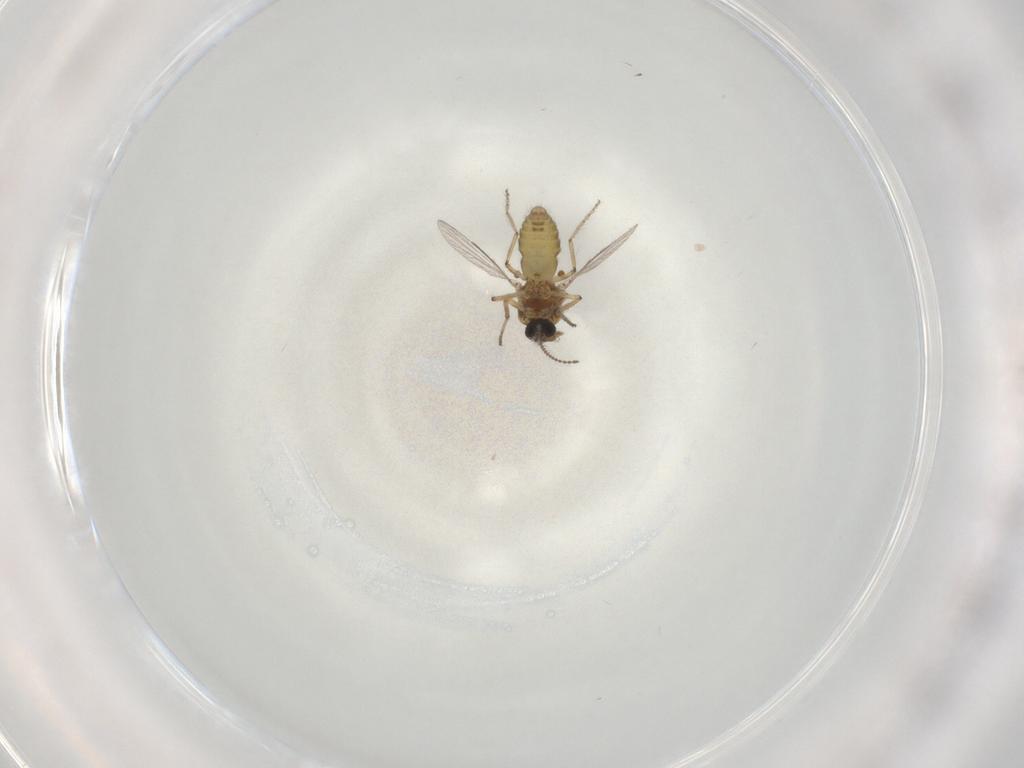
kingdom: Animalia
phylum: Arthropoda
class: Insecta
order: Diptera
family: Ceratopogonidae
